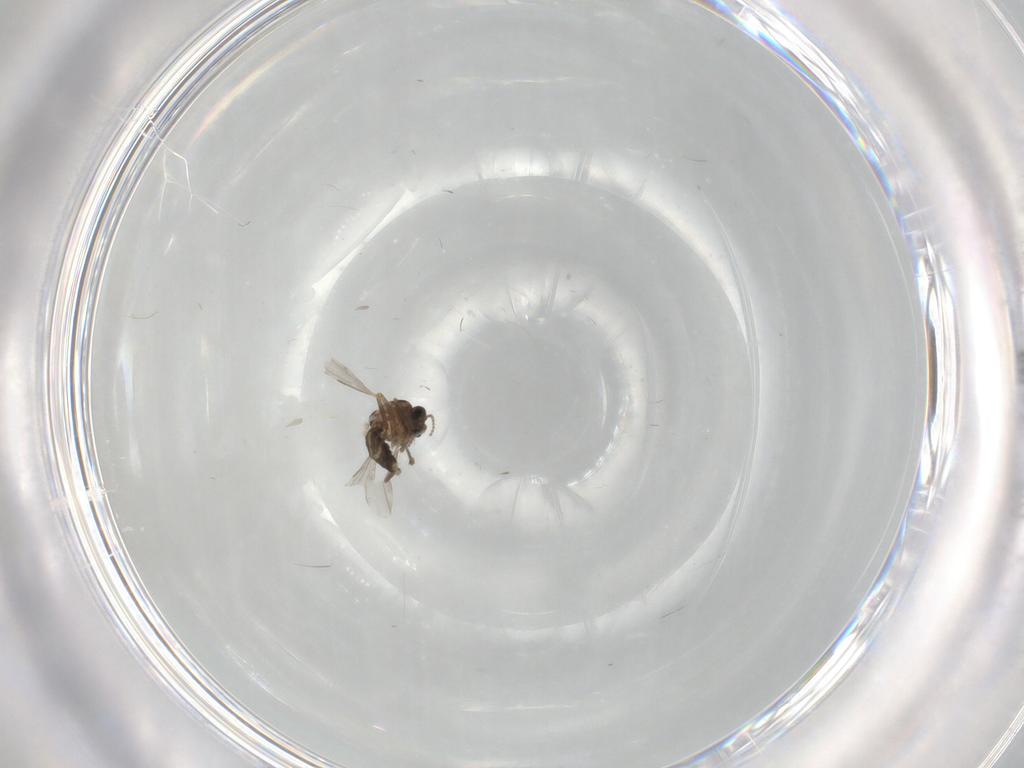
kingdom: Animalia
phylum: Arthropoda
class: Insecta
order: Diptera
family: Ceratopogonidae
